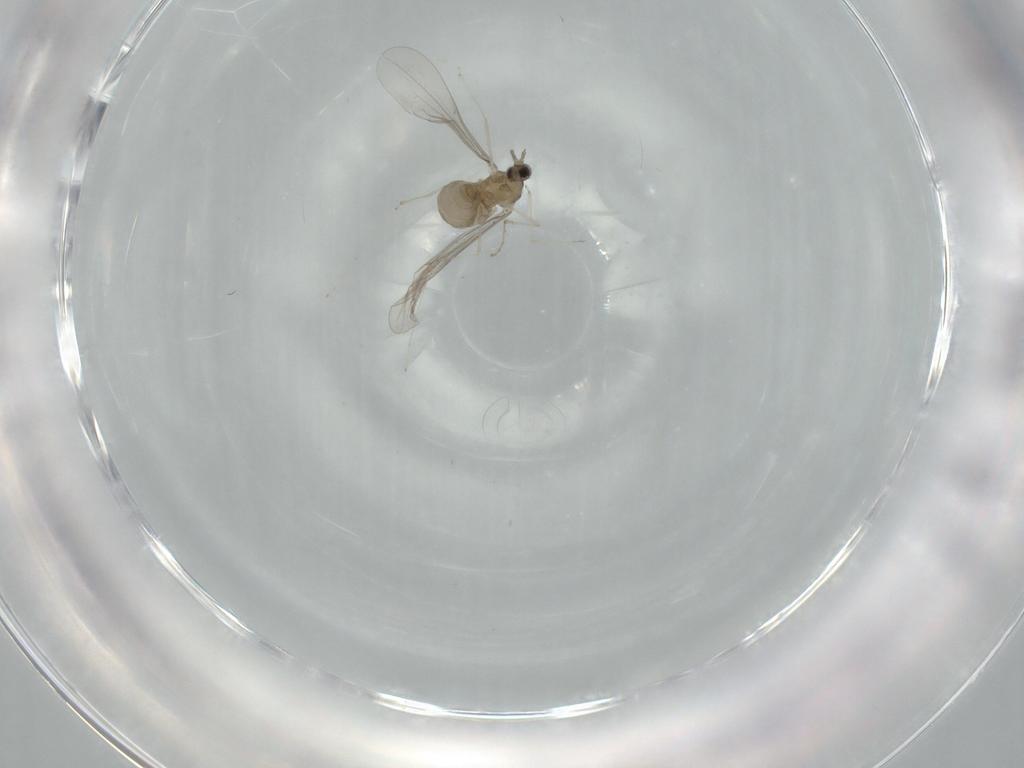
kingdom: Animalia
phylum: Arthropoda
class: Insecta
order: Diptera
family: Sciaridae
